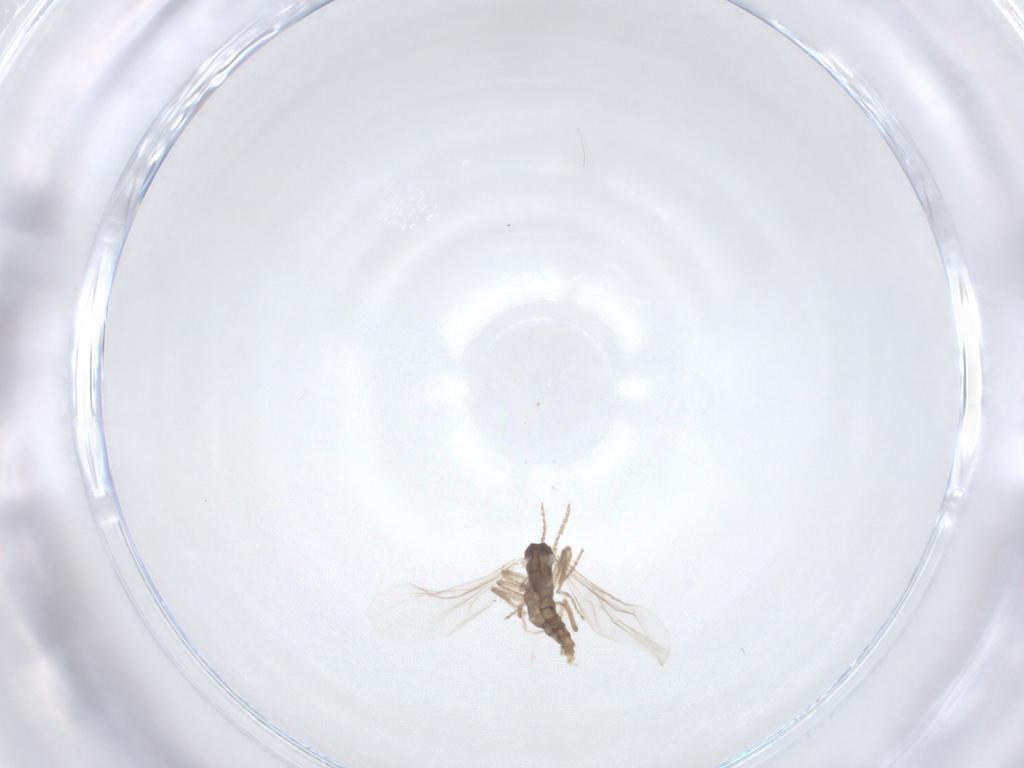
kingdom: Animalia
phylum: Arthropoda
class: Insecta
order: Diptera
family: Cecidomyiidae
